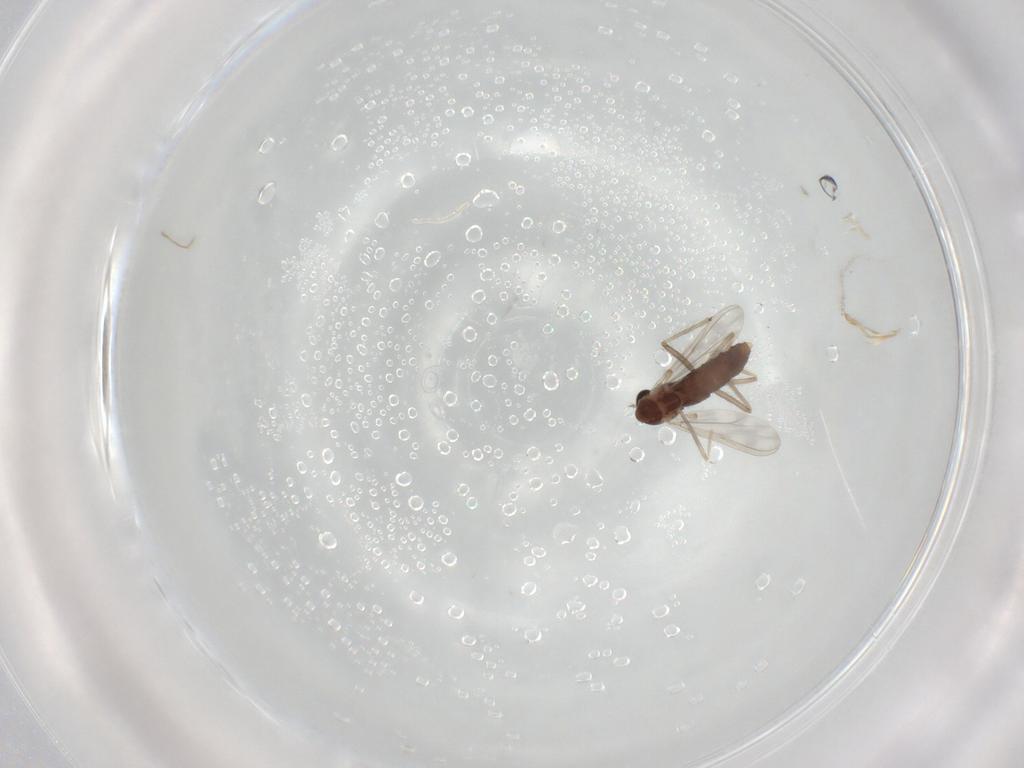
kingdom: Animalia
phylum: Arthropoda
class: Insecta
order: Diptera
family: Chironomidae
